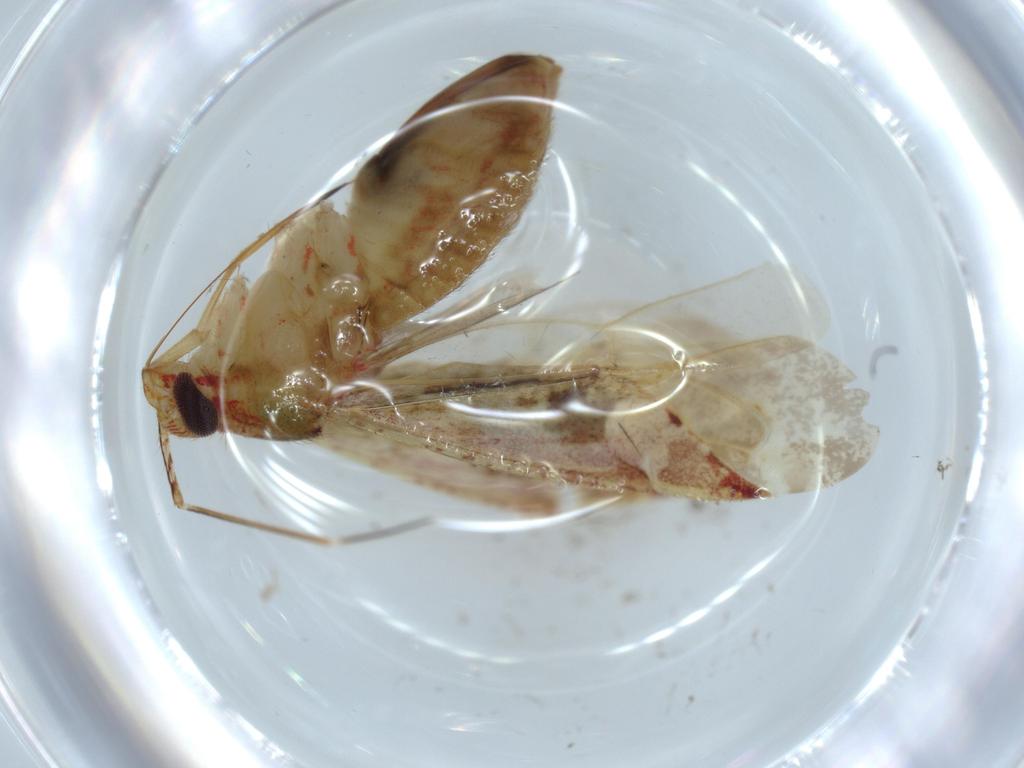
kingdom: Animalia
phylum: Arthropoda
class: Insecta
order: Hemiptera
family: Miridae
